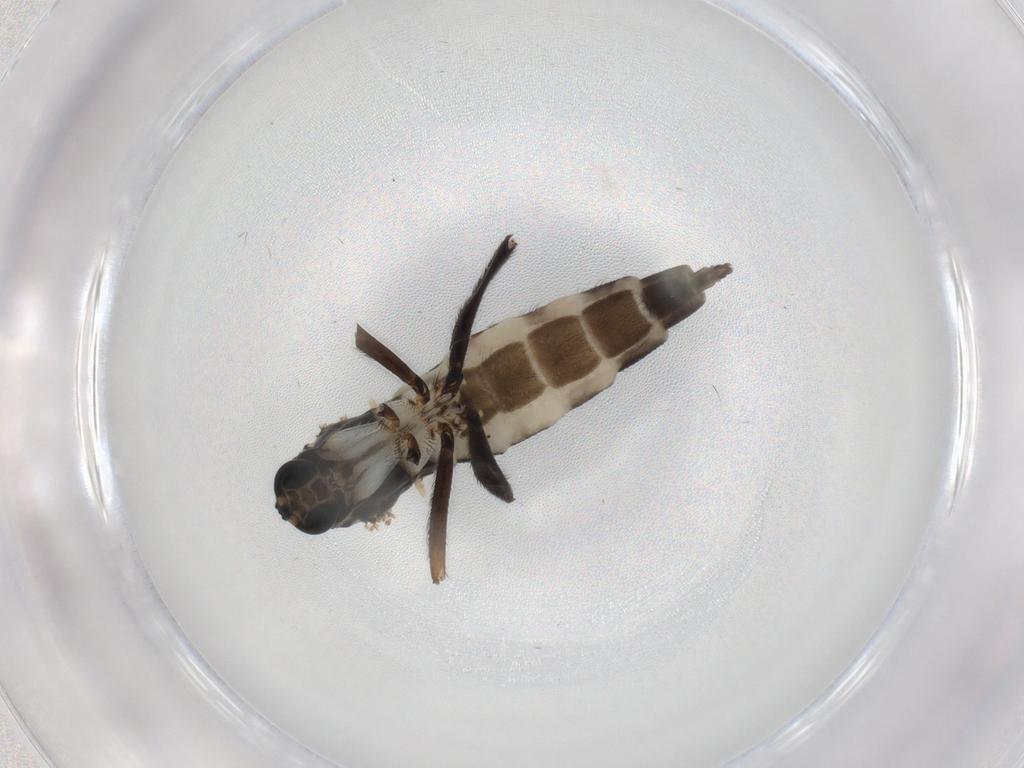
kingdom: Animalia
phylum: Arthropoda
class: Insecta
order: Diptera
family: Sciaridae
